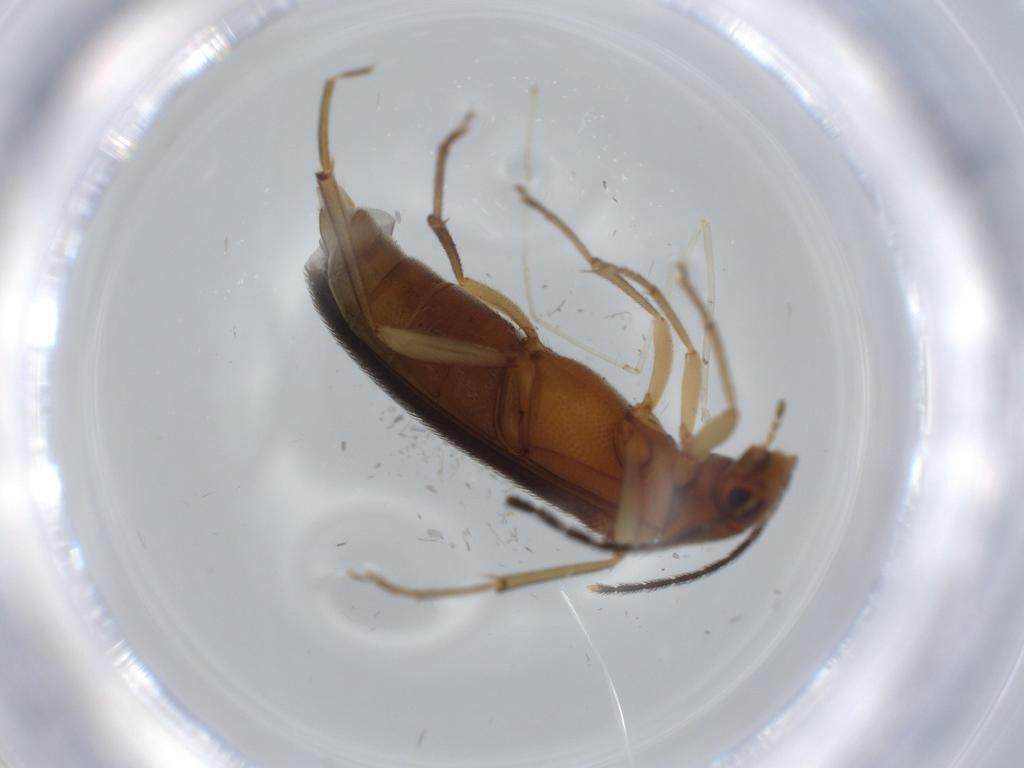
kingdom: Animalia
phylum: Arthropoda
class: Insecta
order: Coleoptera
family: Melandryidae
